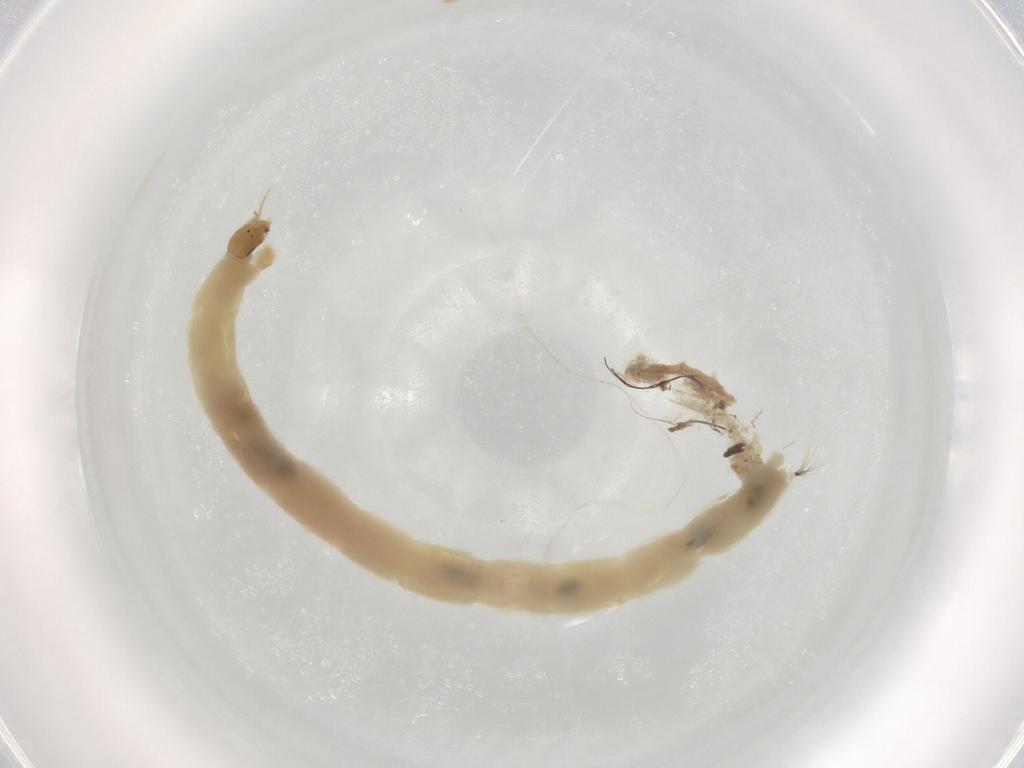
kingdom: Animalia
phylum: Arthropoda
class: Insecta
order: Diptera
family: Chironomidae
